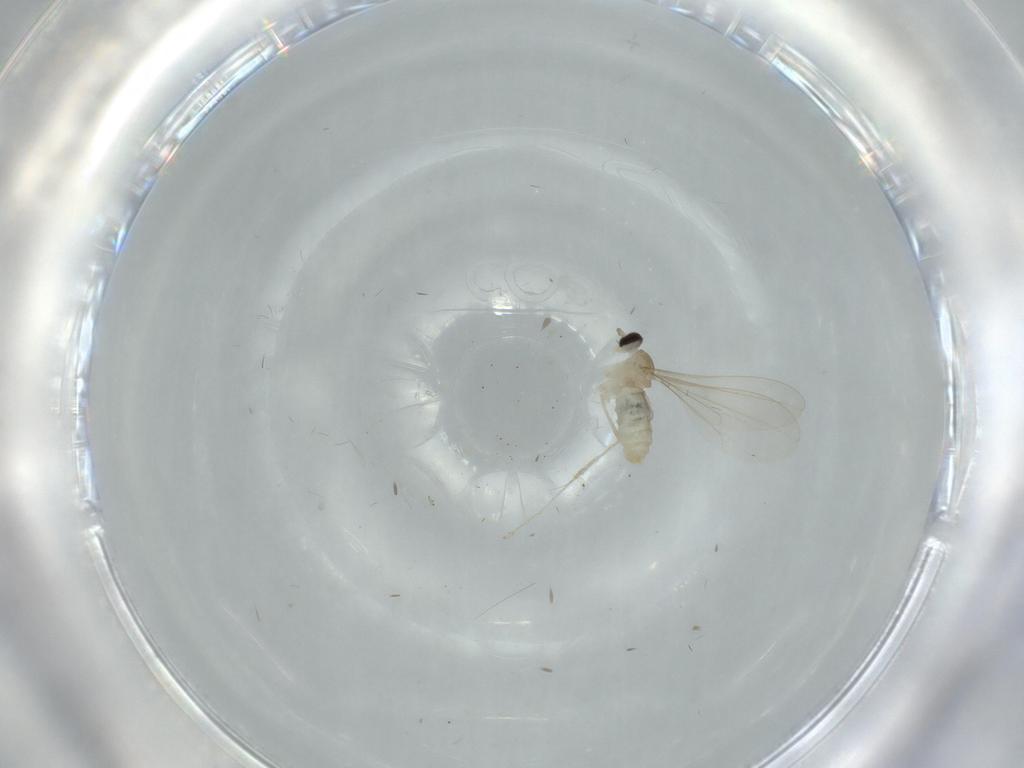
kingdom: Animalia
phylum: Arthropoda
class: Insecta
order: Diptera
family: Cecidomyiidae
